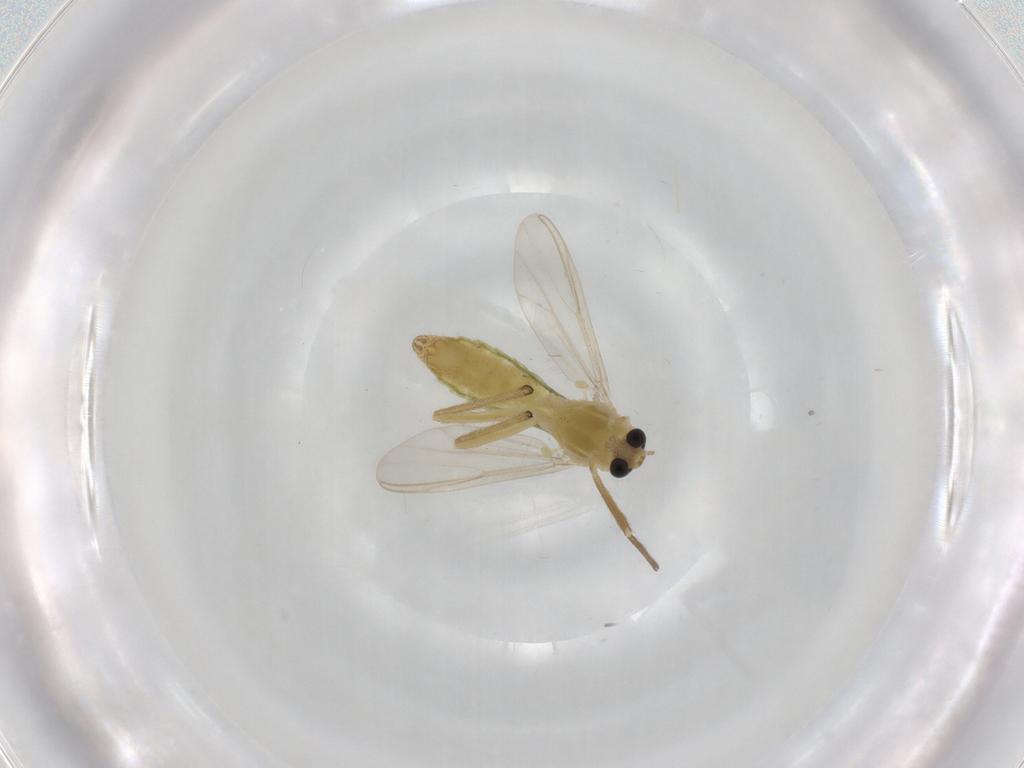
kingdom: Animalia
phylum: Arthropoda
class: Insecta
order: Diptera
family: Chironomidae
